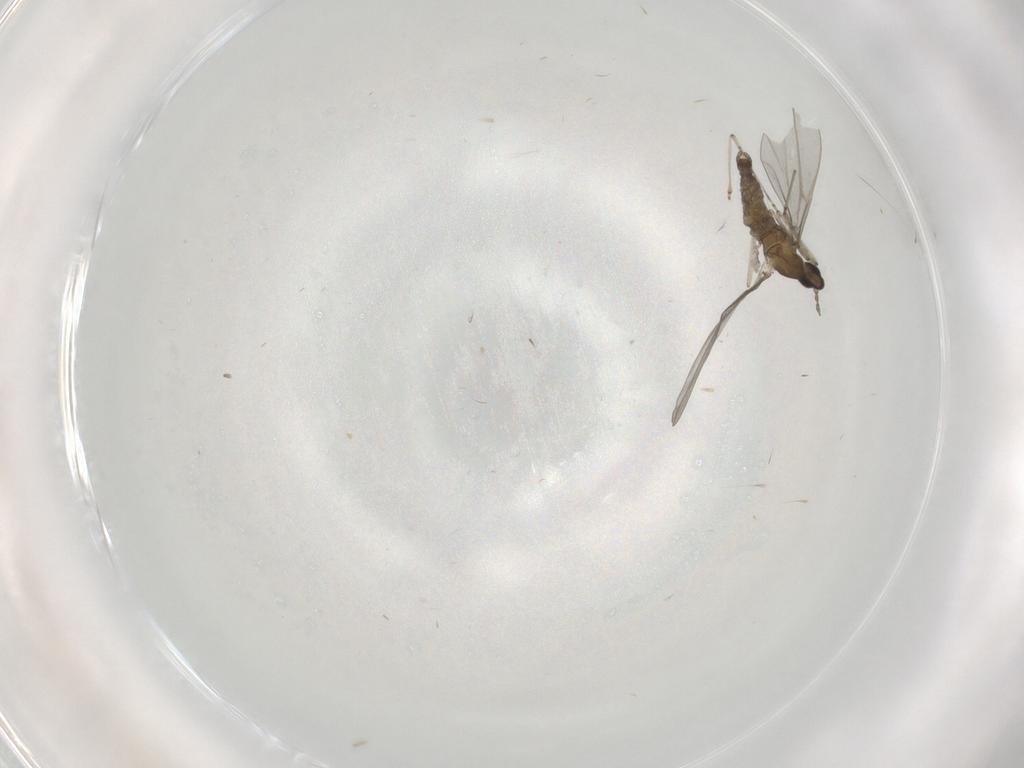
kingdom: Animalia
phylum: Arthropoda
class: Insecta
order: Diptera
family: Cecidomyiidae
